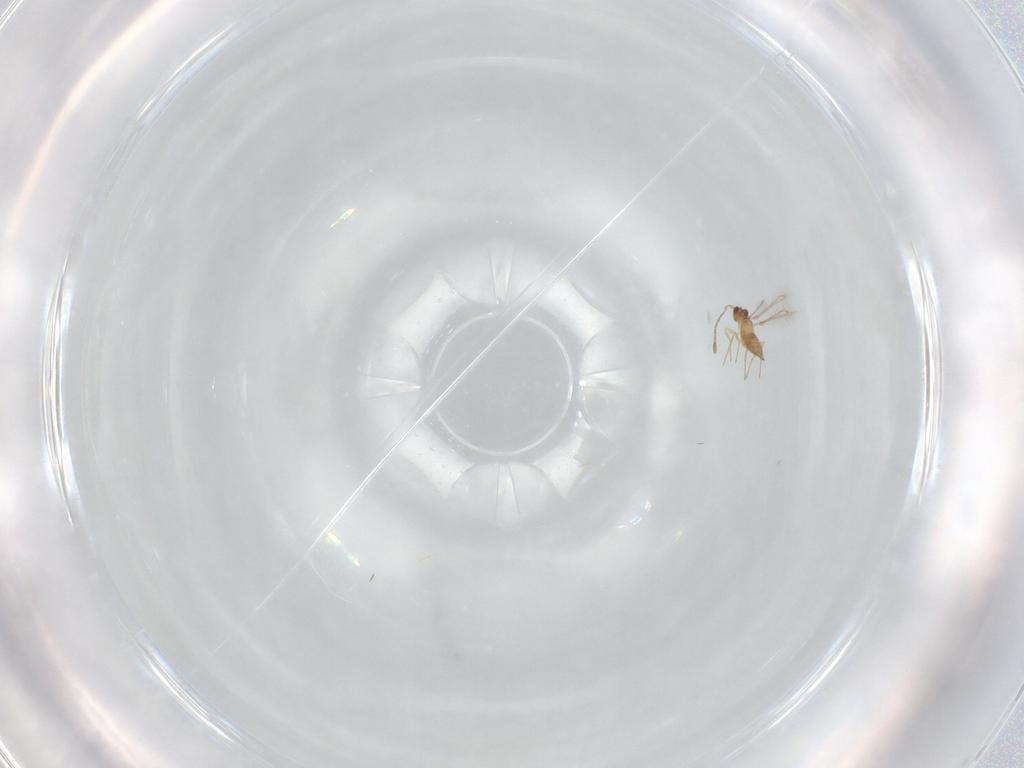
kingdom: Animalia
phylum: Arthropoda
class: Insecta
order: Hymenoptera
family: Mymaridae
